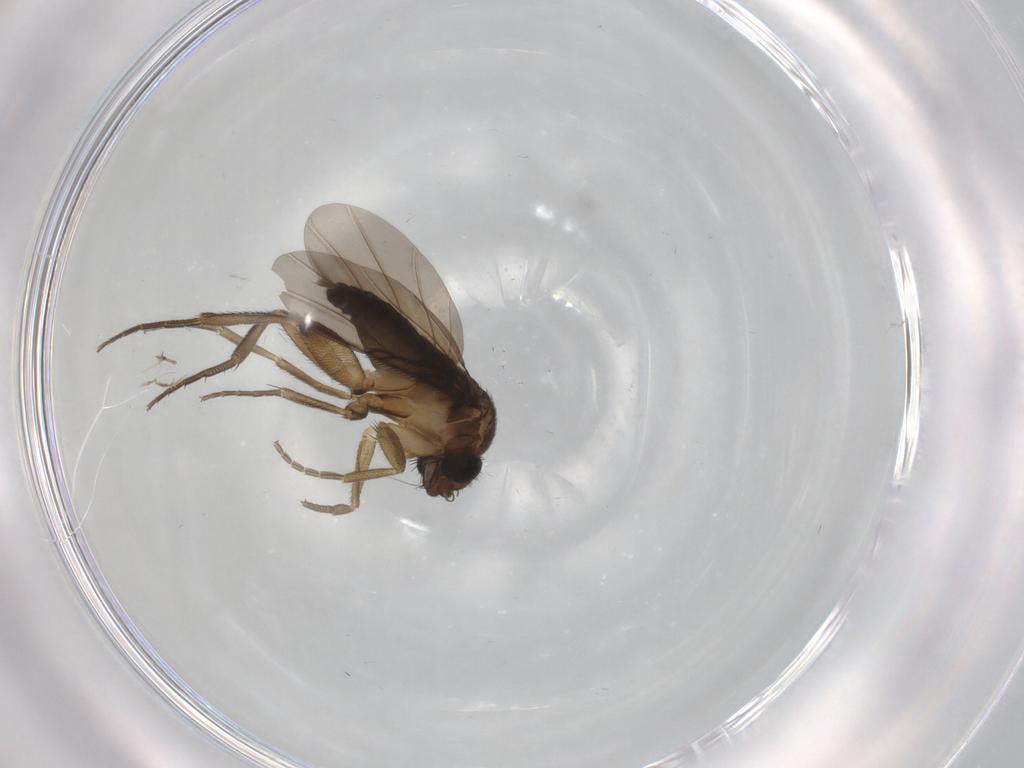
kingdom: Animalia
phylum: Arthropoda
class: Insecta
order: Diptera
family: Phoridae
